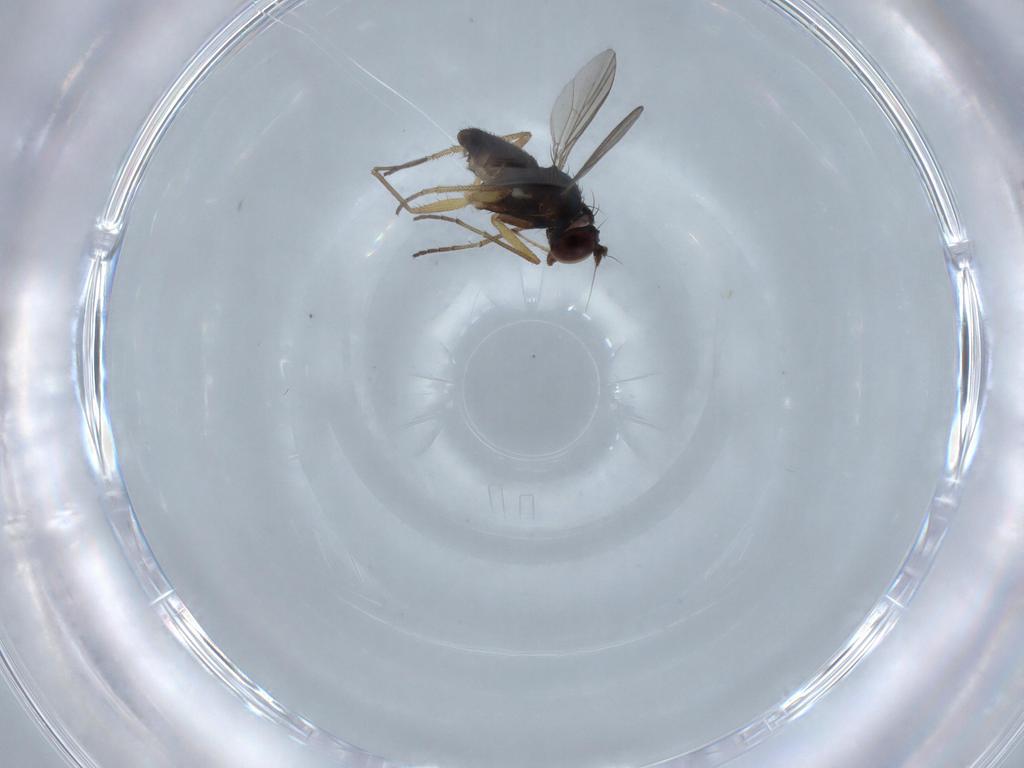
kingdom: Animalia
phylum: Arthropoda
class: Insecta
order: Diptera
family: Dolichopodidae
